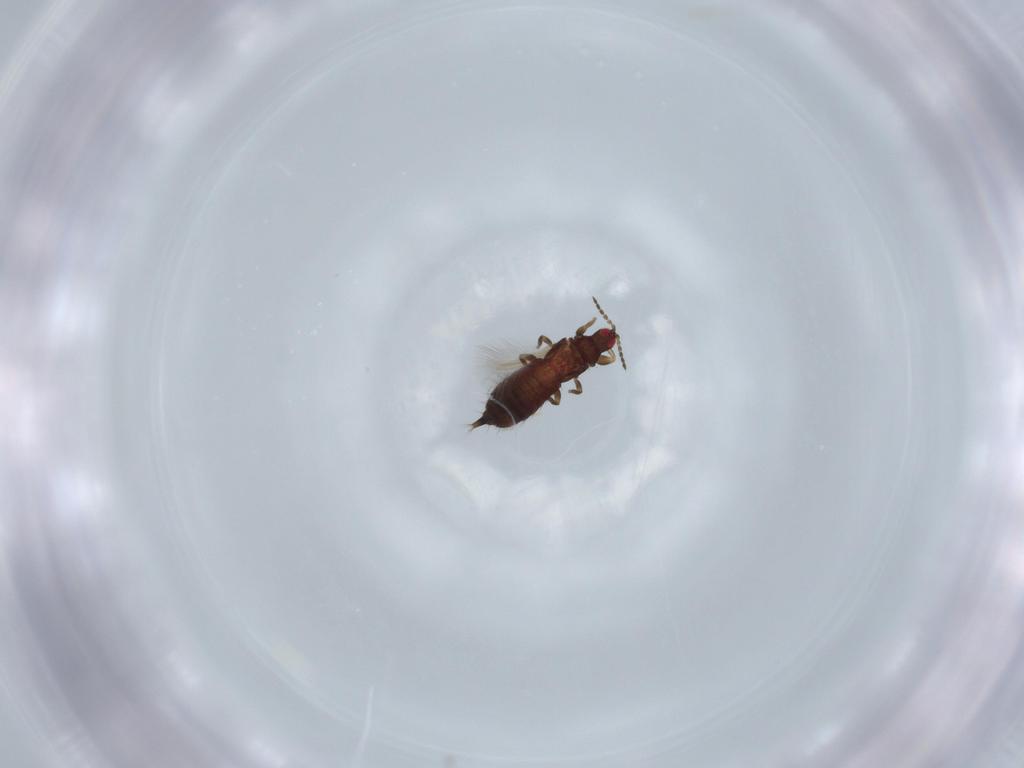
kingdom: Animalia
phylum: Arthropoda
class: Insecta
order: Thysanoptera
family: Phlaeothripidae
